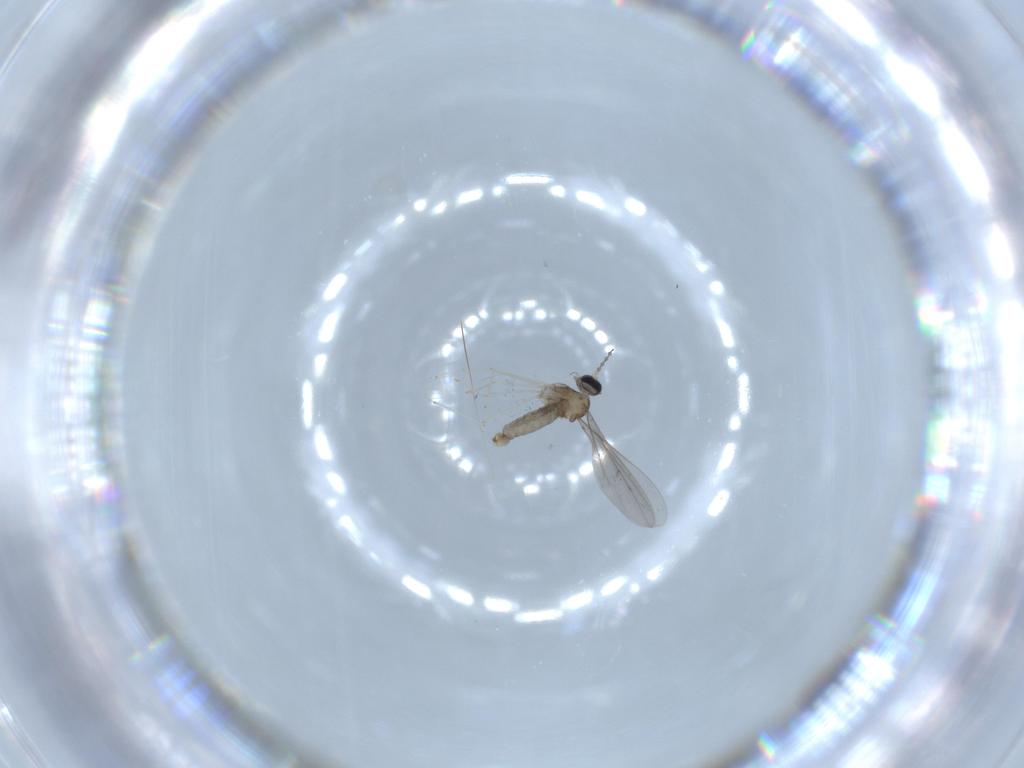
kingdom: Animalia
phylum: Arthropoda
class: Insecta
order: Diptera
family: Cecidomyiidae
